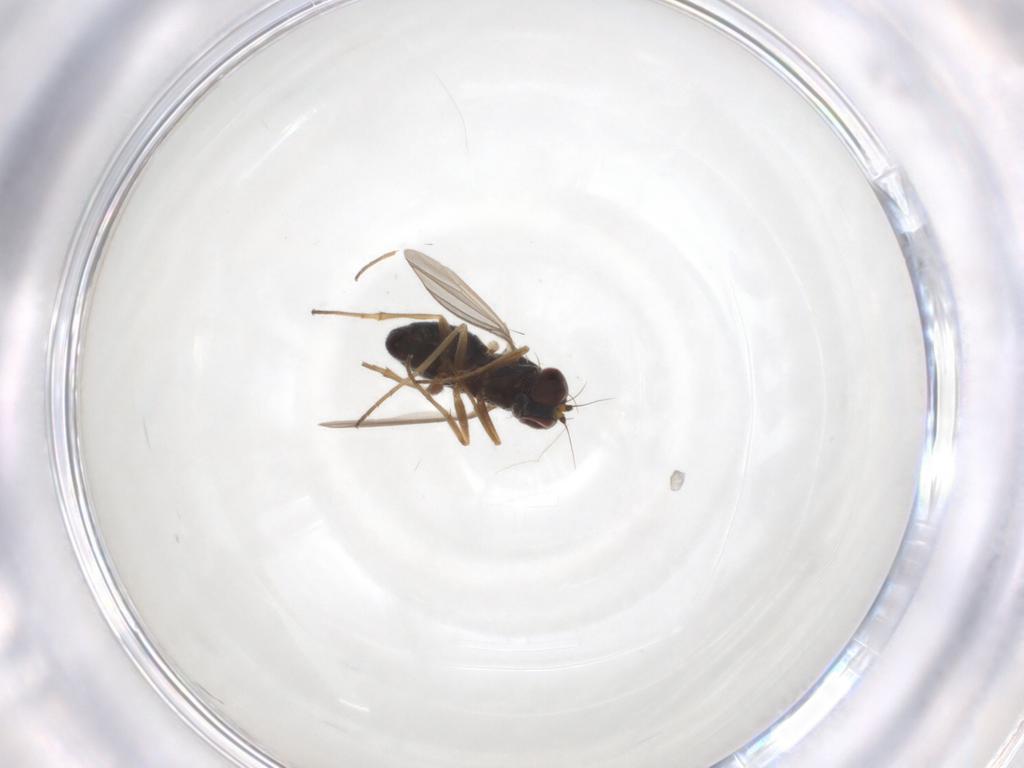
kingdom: Animalia
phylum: Arthropoda
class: Insecta
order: Diptera
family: Dolichopodidae
